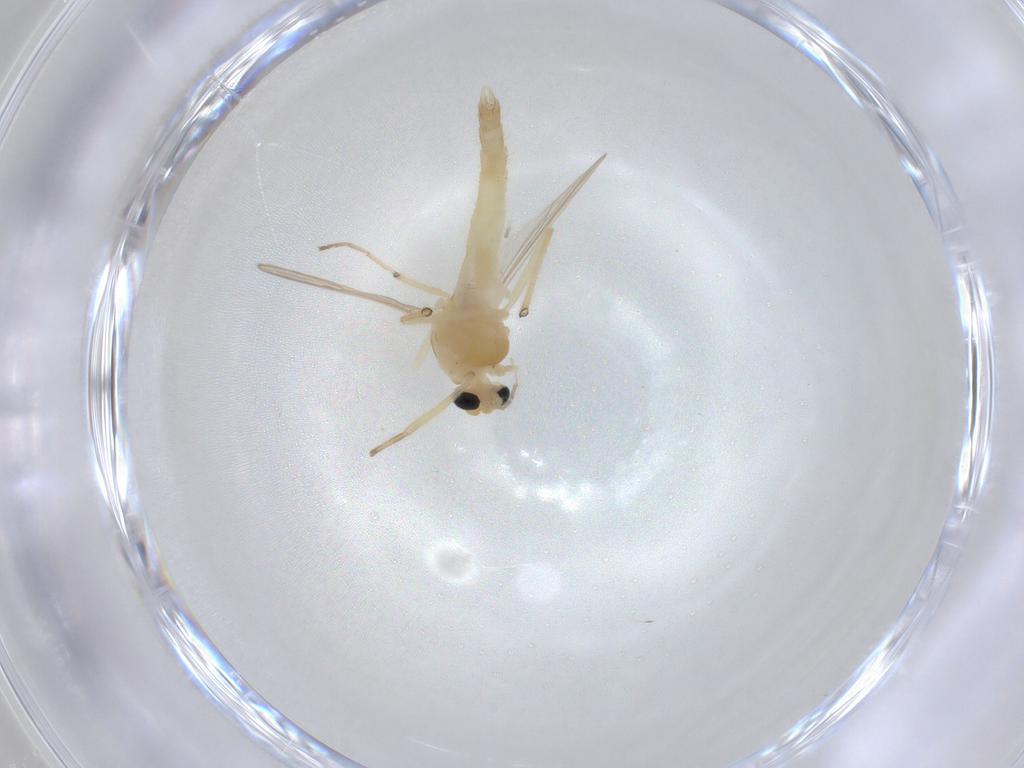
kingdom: Animalia
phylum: Arthropoda
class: Insecta
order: Diptera
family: Chironomidae
